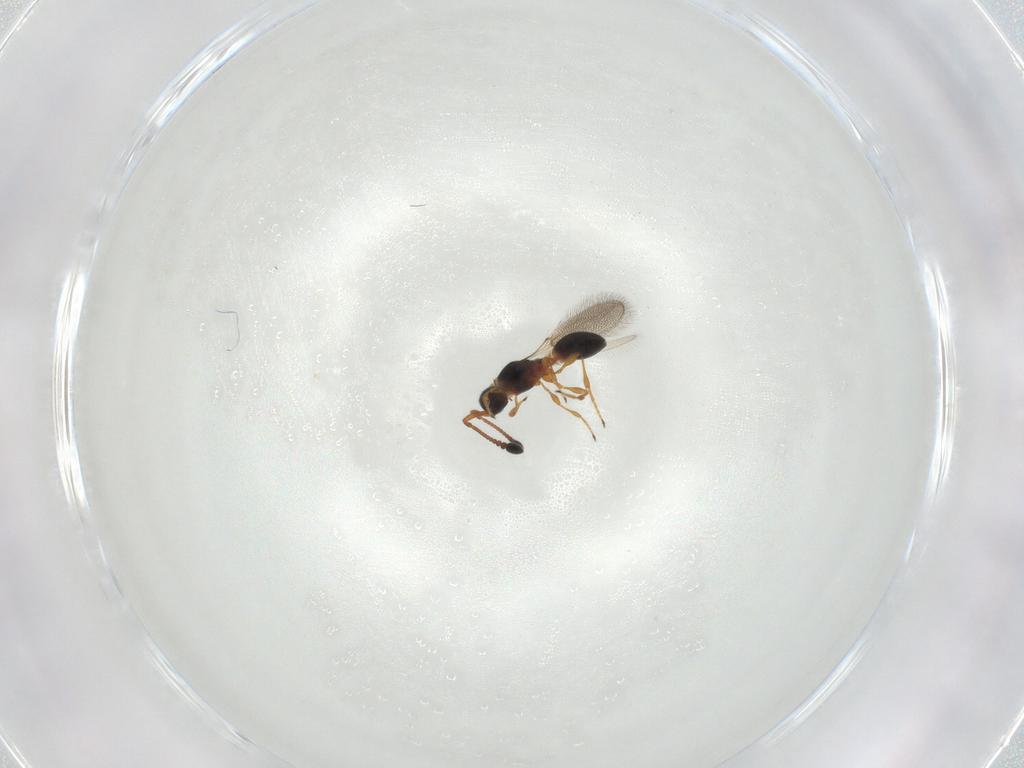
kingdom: Animalia
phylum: Arthropoda
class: Insecta
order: Hymenoptera
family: Diapriidae
